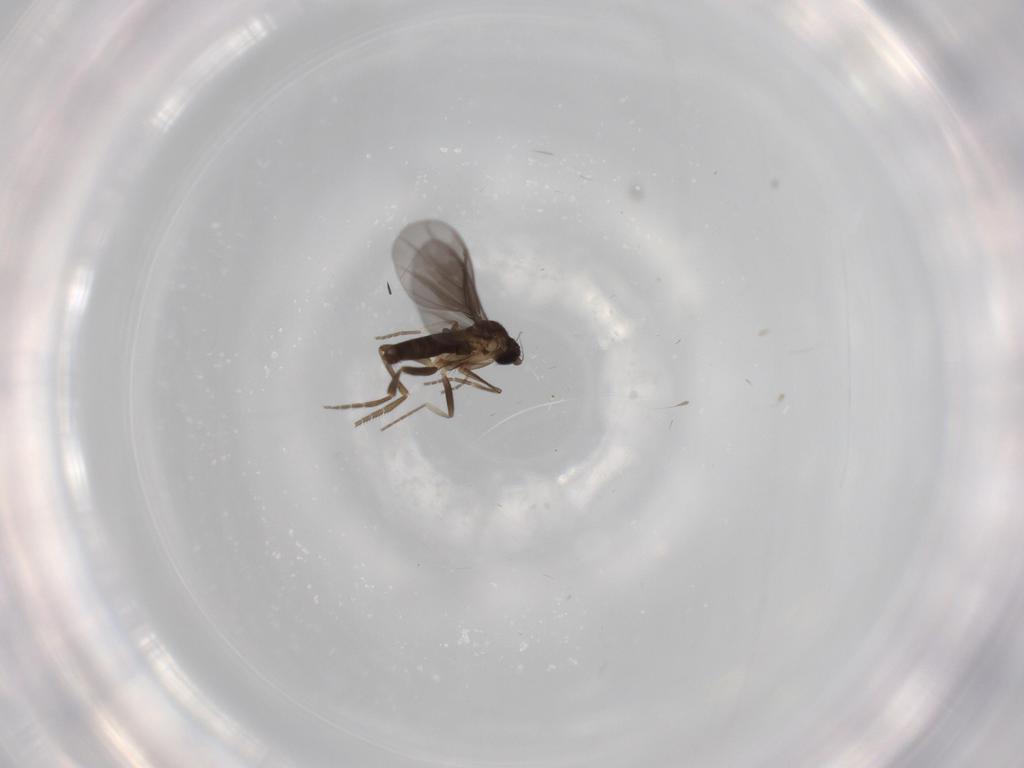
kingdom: Animalia
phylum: Arthropoda
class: Insecta
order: Diptera
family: Phoridae
